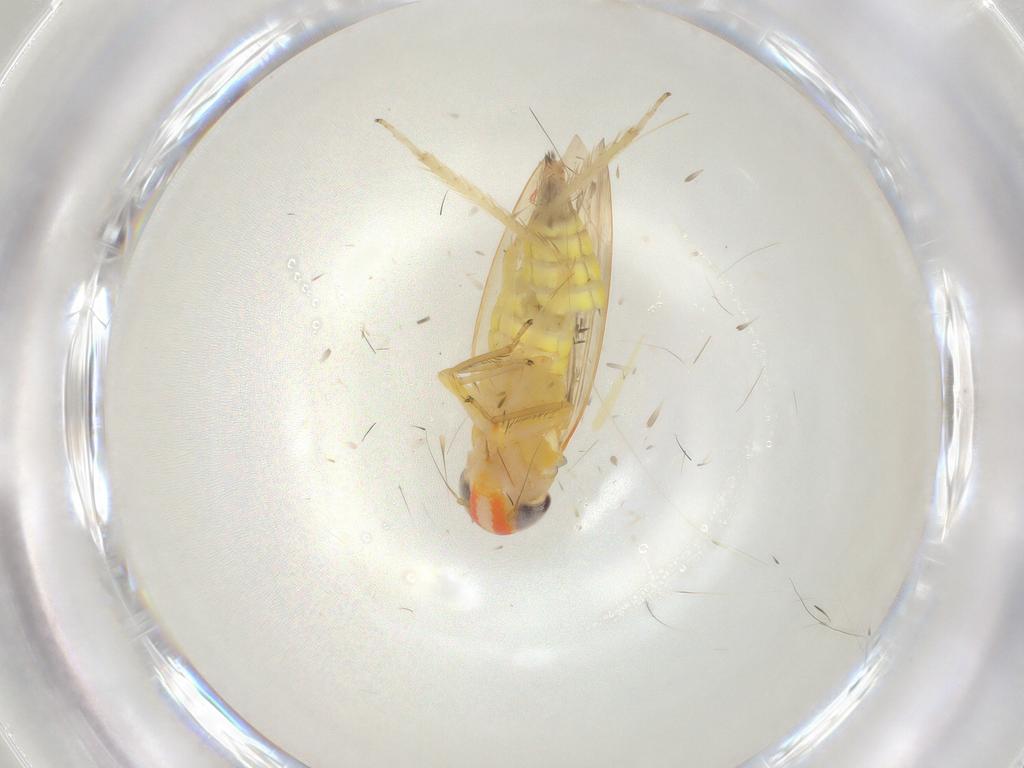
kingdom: Animalia
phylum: Arthropoda
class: Insecta
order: Hemiptera
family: Cicadellidae
